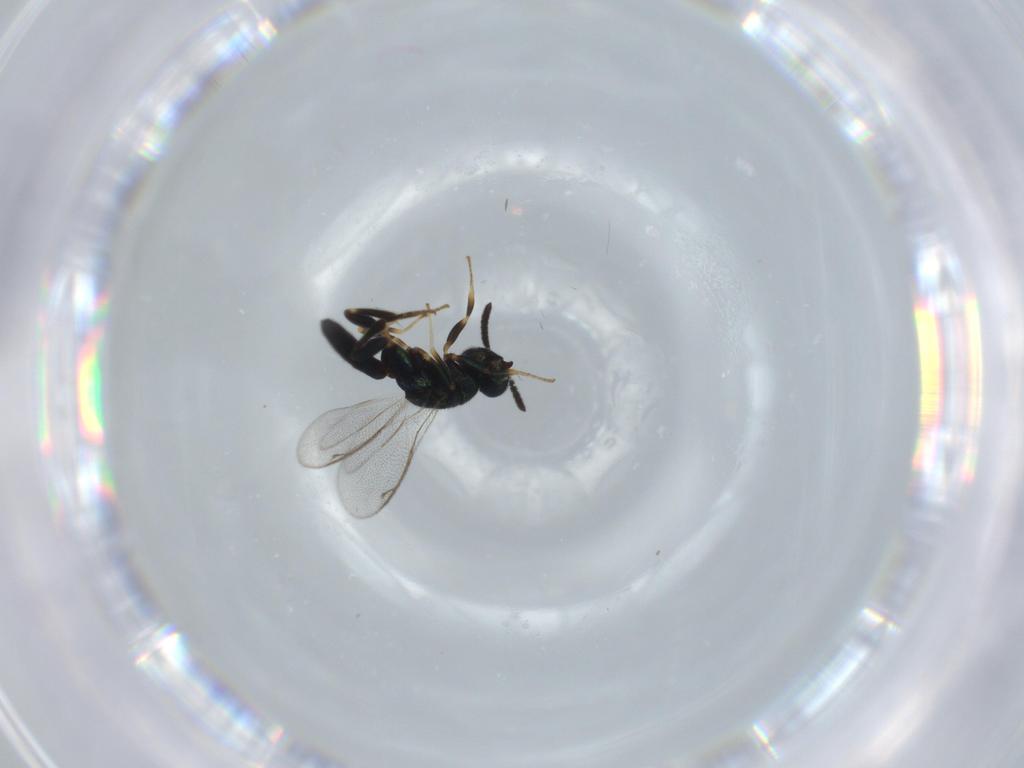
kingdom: Animalia
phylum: Arthropoda
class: Insecta
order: Hymenoptera
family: Cleonyminae
